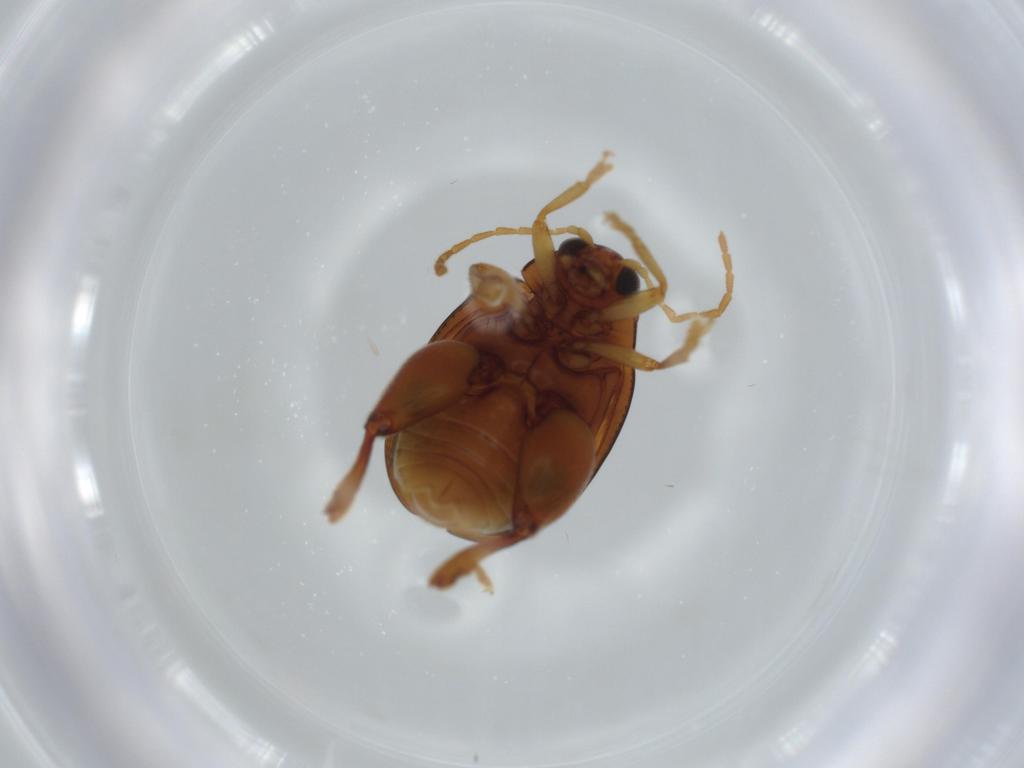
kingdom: Animalia
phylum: Arthropoda
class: Insecta
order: Coleoptera
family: Chrysomelidae
